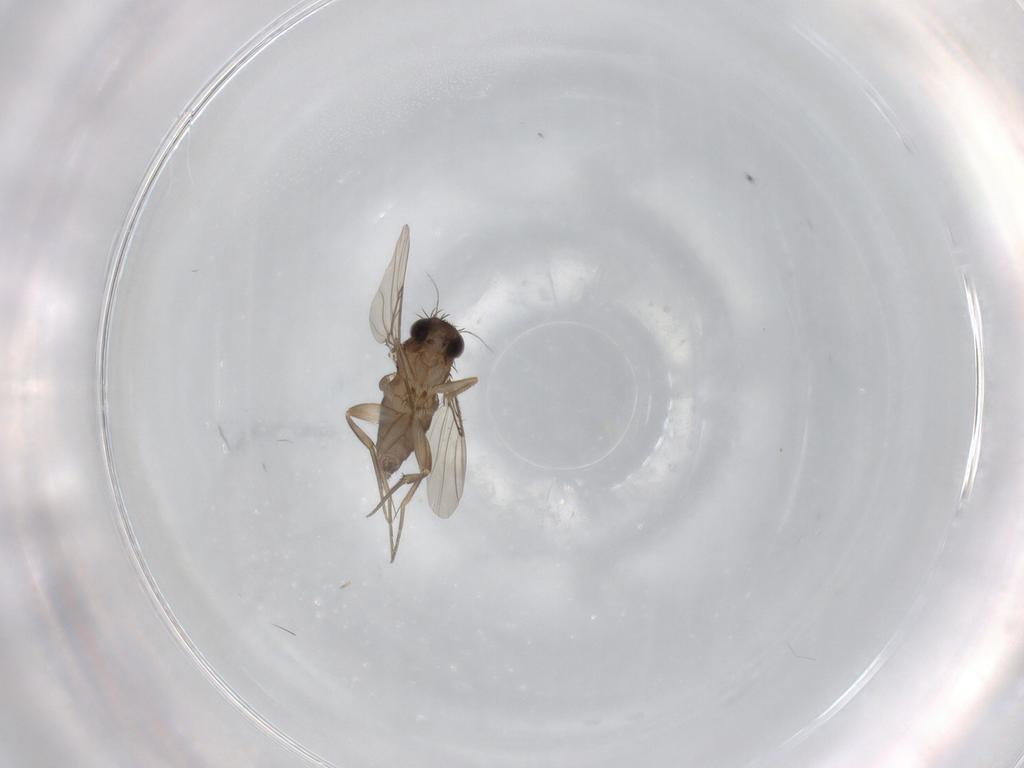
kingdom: Animalia
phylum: Arthropoda
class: Insecta
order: Diptera
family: Phoridae
